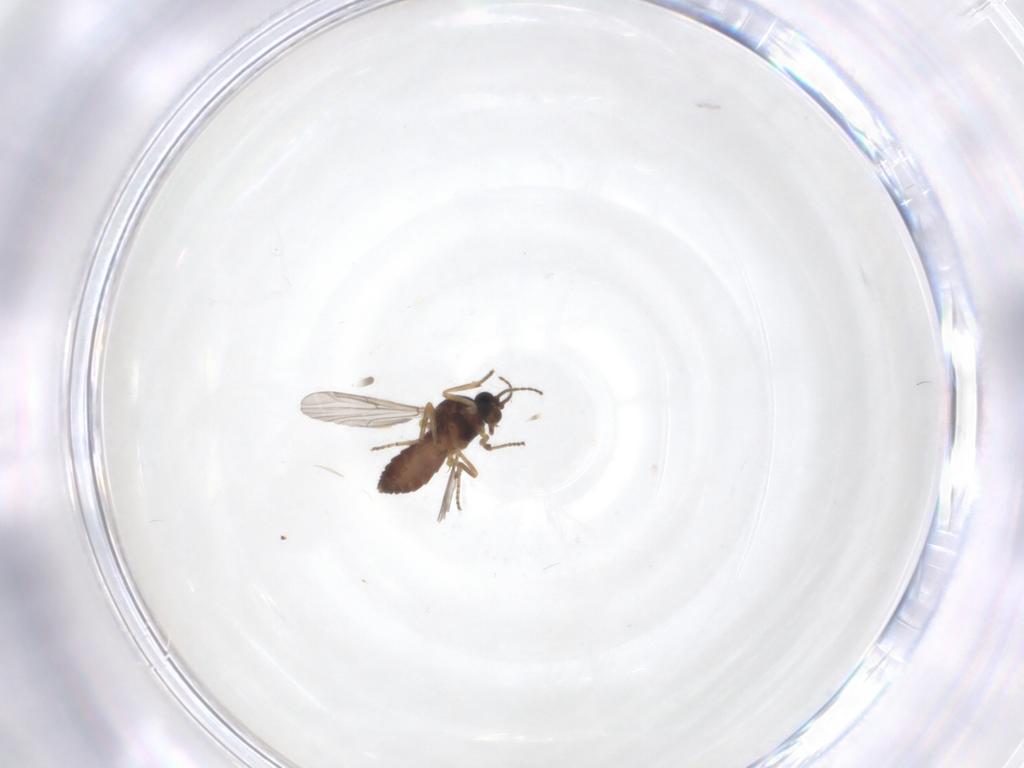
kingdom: Animalia
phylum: Arthropoda
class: Insecta
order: Diptera
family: Ceratopogonidae
